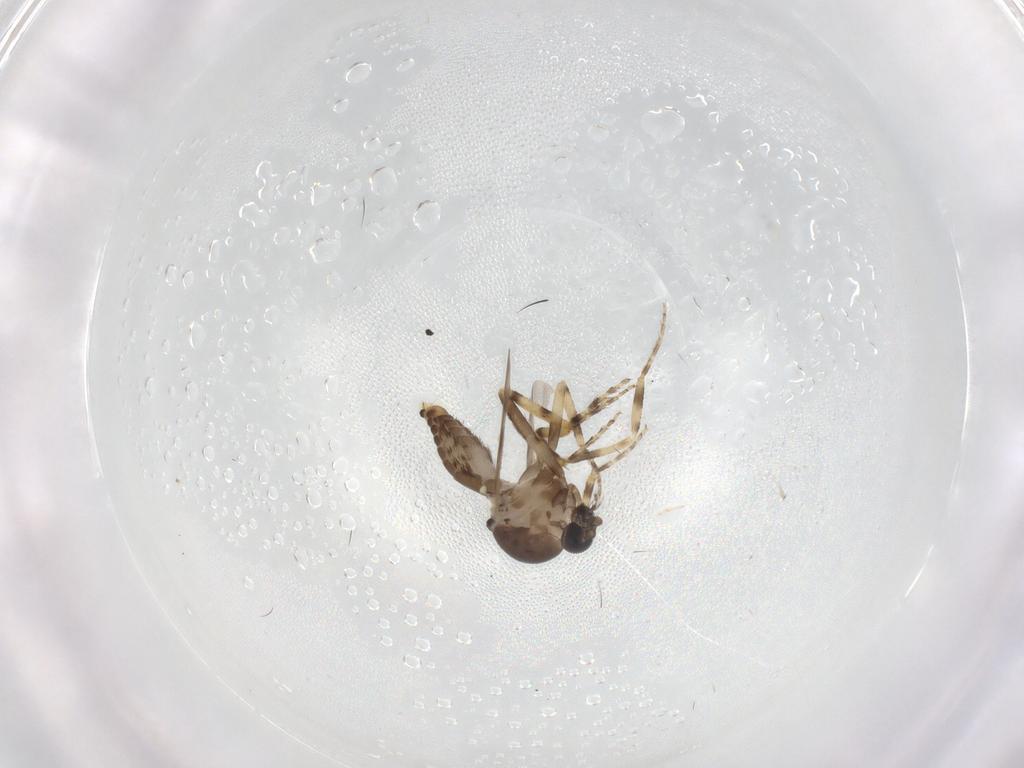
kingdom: Animalia
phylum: Arthropoda
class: Insecta
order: Diptera
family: Ceratopogonidae
